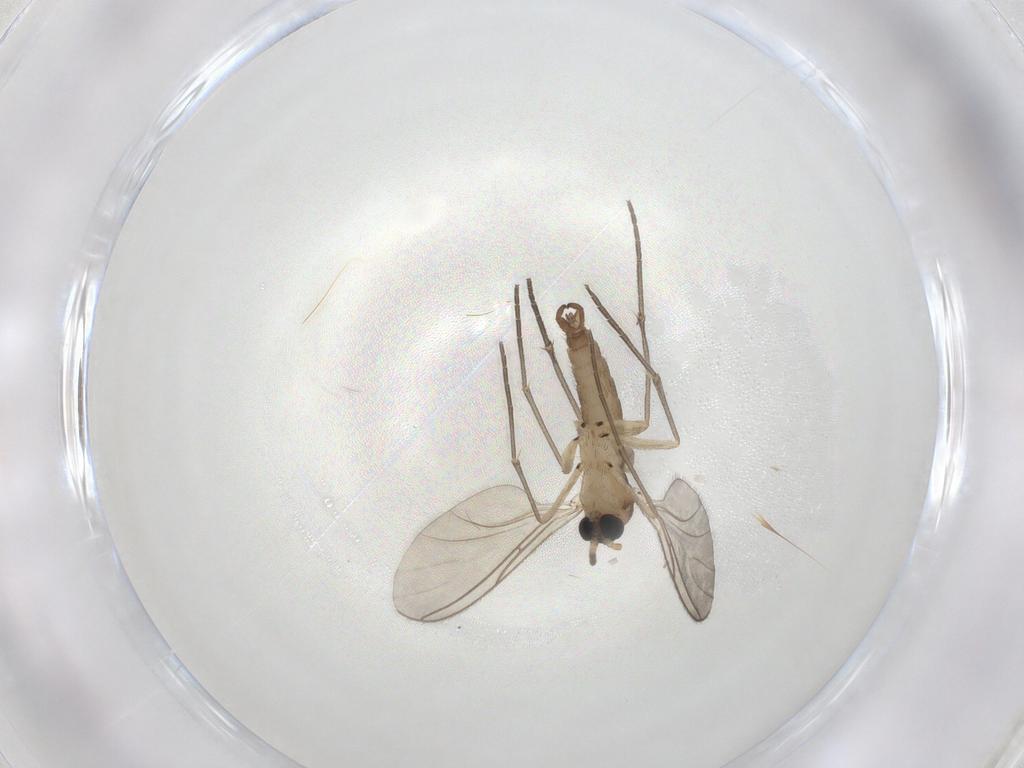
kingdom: Animalia
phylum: Arthropoda
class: Insecta
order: Diptera
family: Sciaridae
